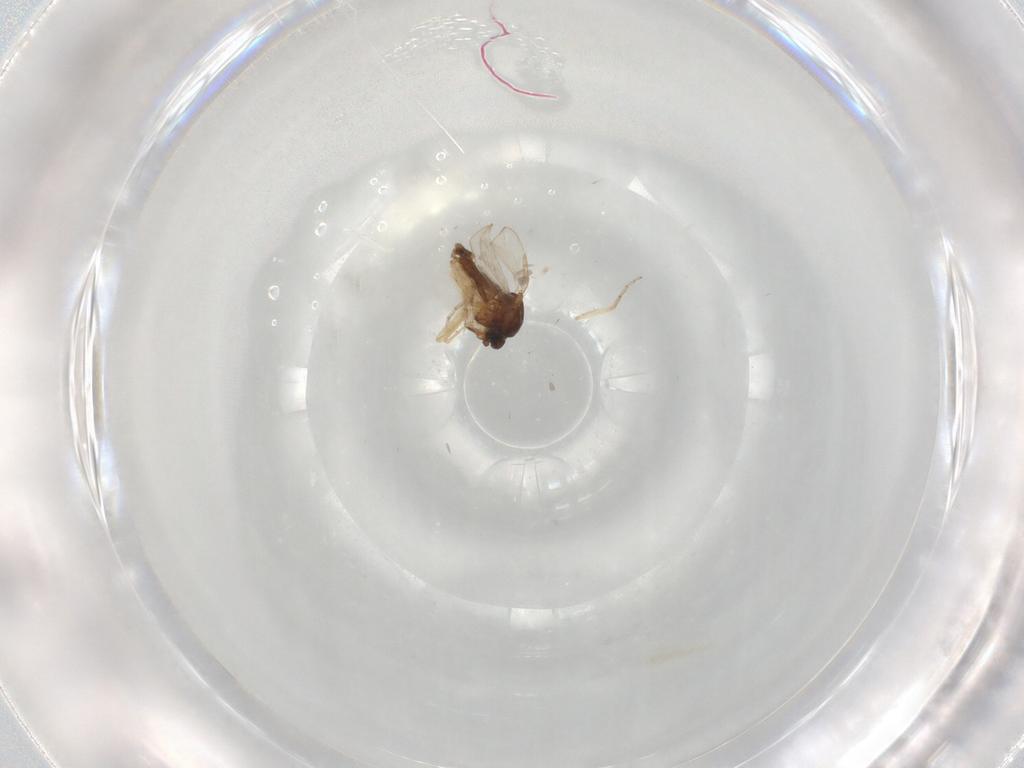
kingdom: Animalia
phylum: Arthropoda
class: Insecta
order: Diptera
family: Ceratopogonidae
